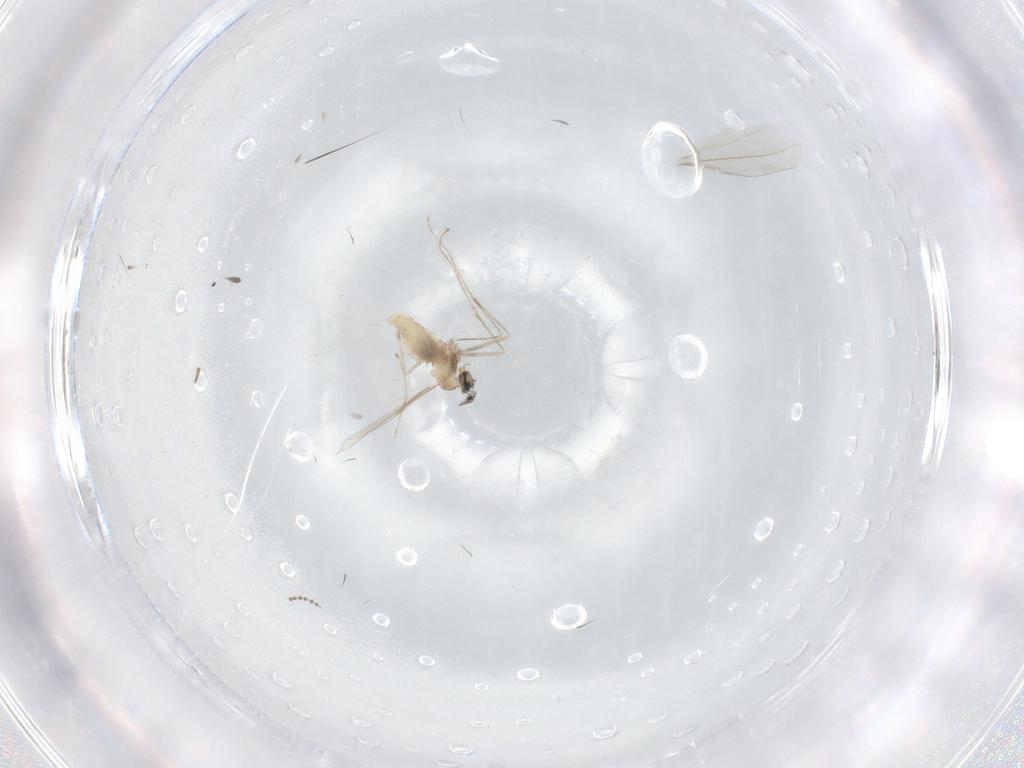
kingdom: Animalia
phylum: Arthropoda
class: Insecta
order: Diptera
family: Cecidomyiidae
